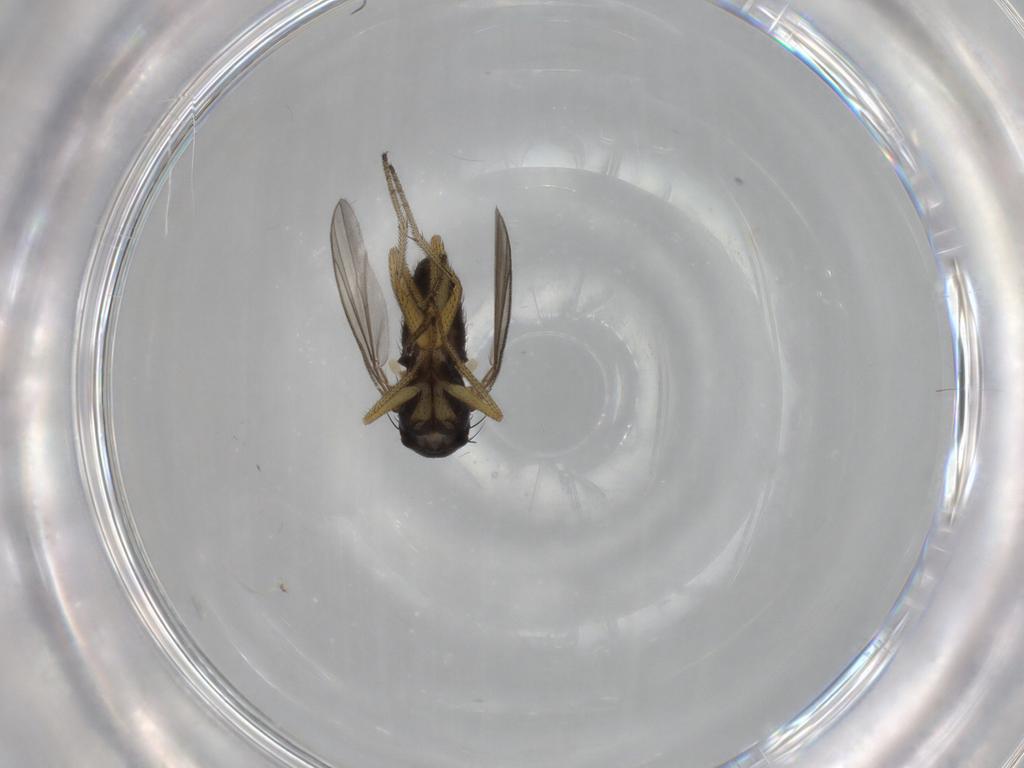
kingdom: Animalia
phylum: Arthropoda
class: Insecta
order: Diptera
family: Dolichopodidae
